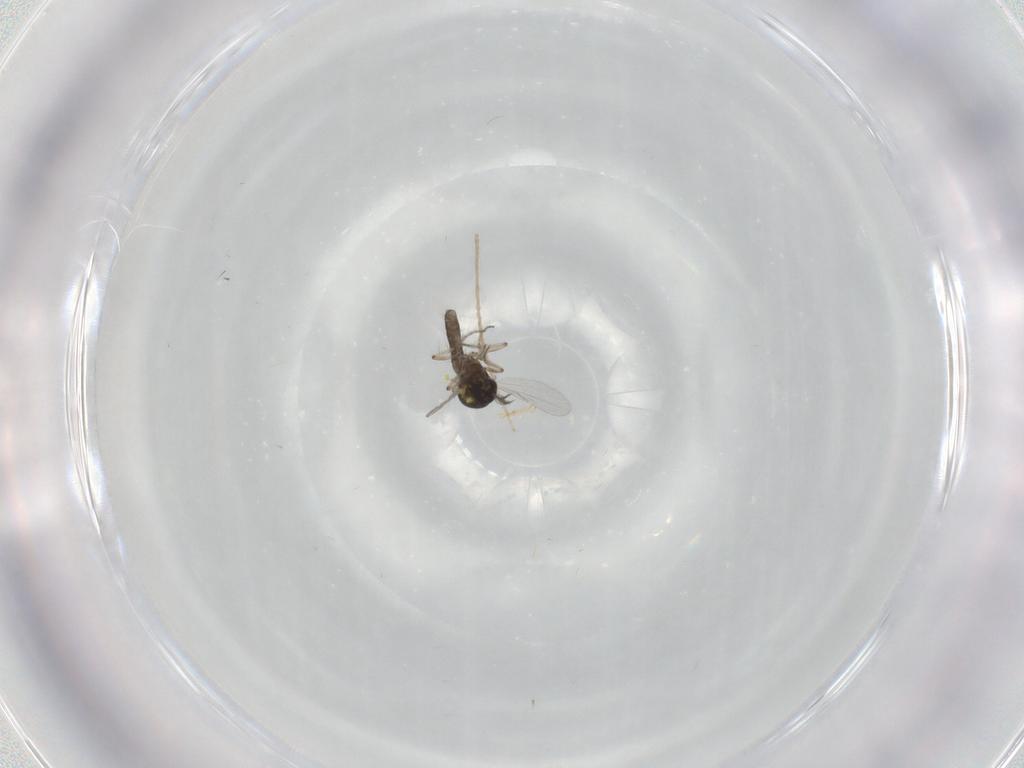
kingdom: Animalia
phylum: Arthropoda
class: Insecta
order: Diptera
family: Ceratopogonidae
